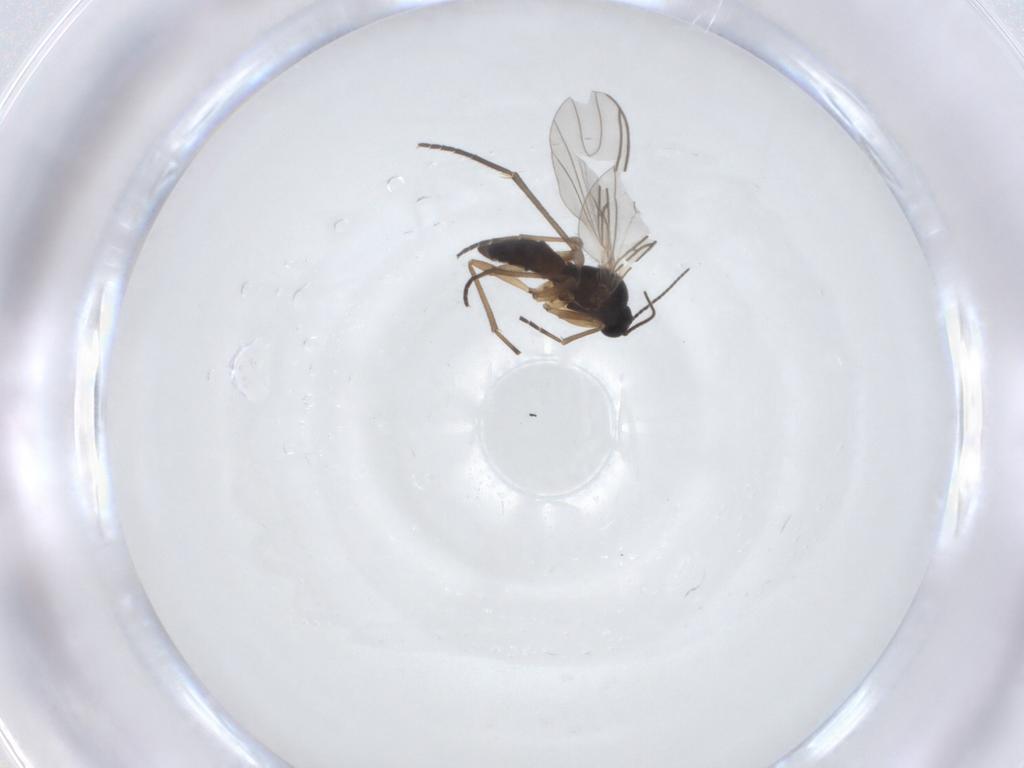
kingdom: Animalia
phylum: Arthropoda
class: Insecta
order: Diptera
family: Sciaridae
